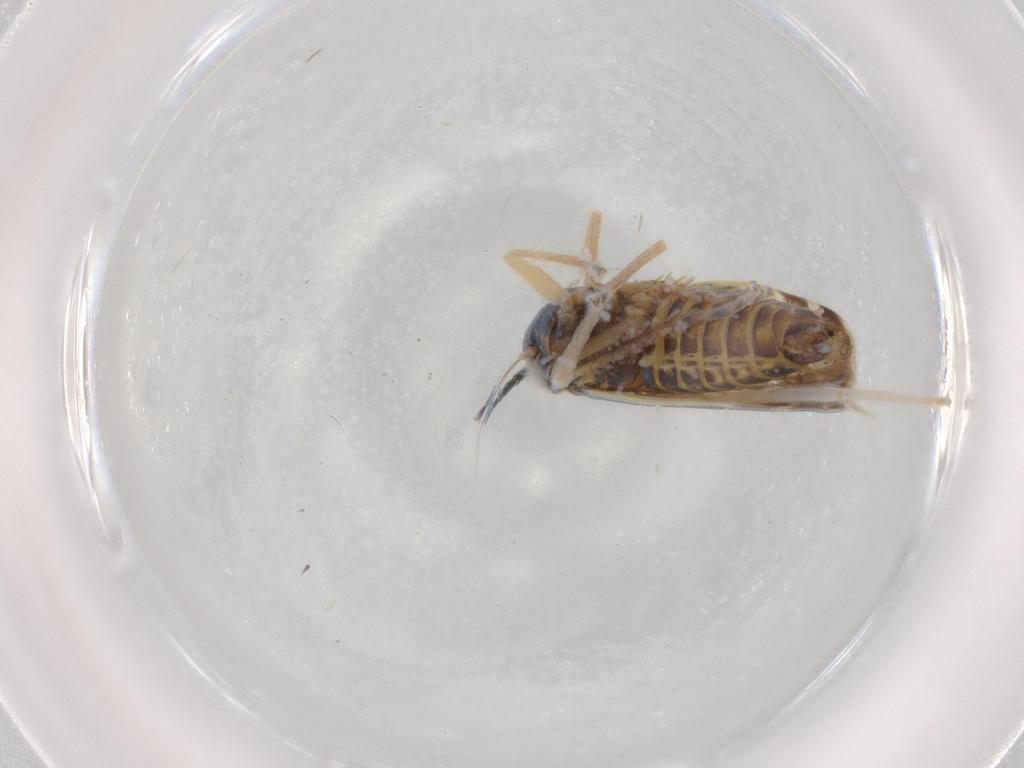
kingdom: Animalia
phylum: Arthropoda
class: Insecta
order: Hemiptera
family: Cicadellidae
